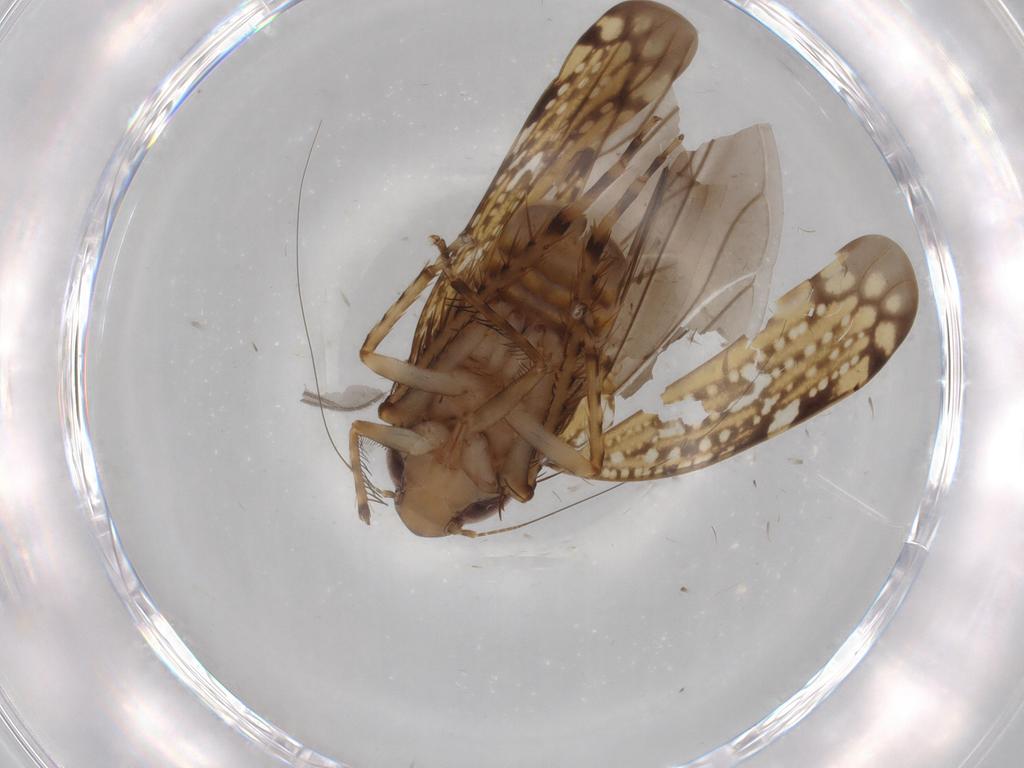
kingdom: Animalia
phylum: Arthropoda
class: Insecta
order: Hemiptera
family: Cicadellidae
